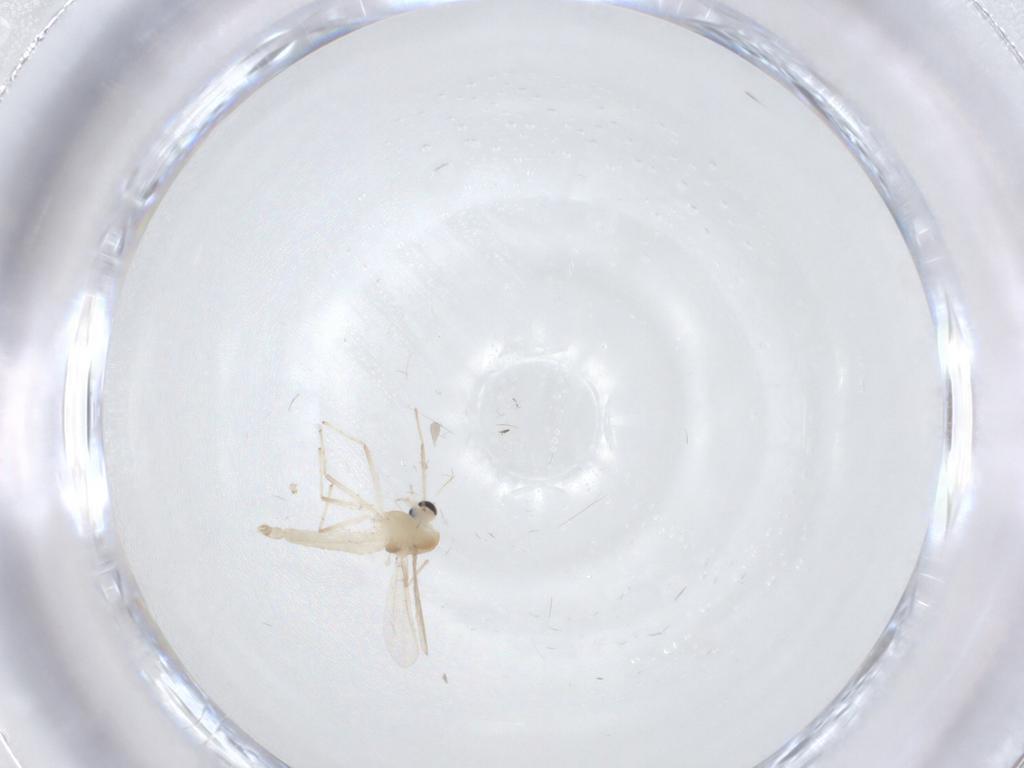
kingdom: Animalia
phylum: Arthropoda
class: Insecta
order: Diptera
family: Chironomidae
